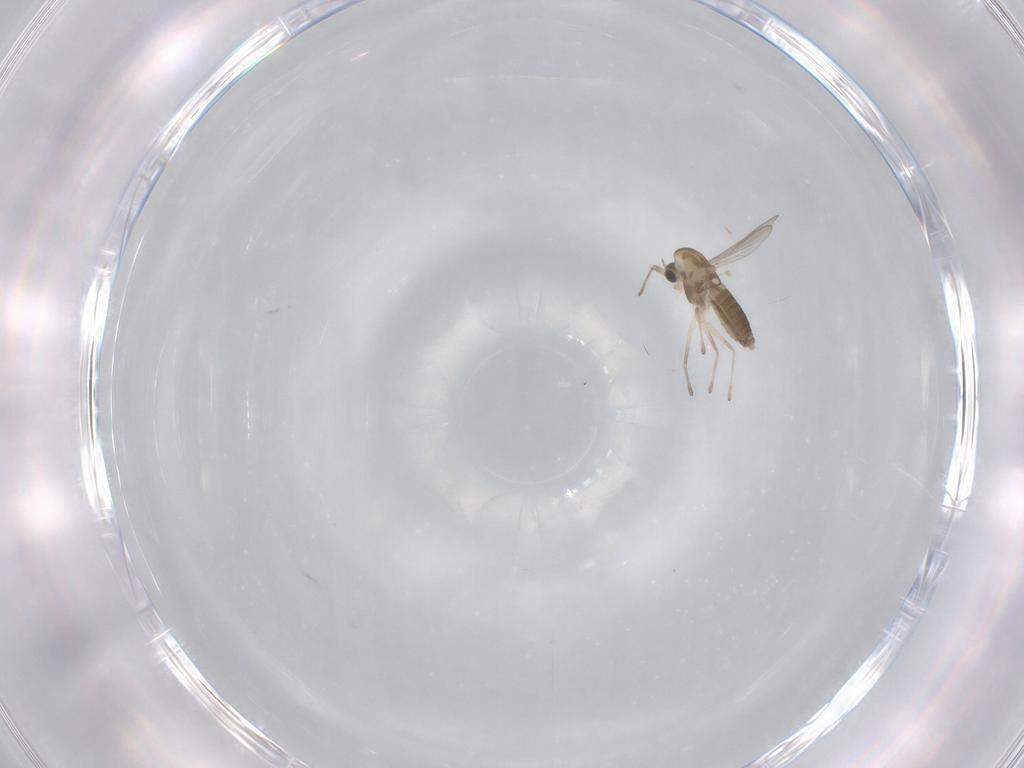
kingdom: Animalia
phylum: Arthropoda
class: Insecta
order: Diptera
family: Chironomidae
